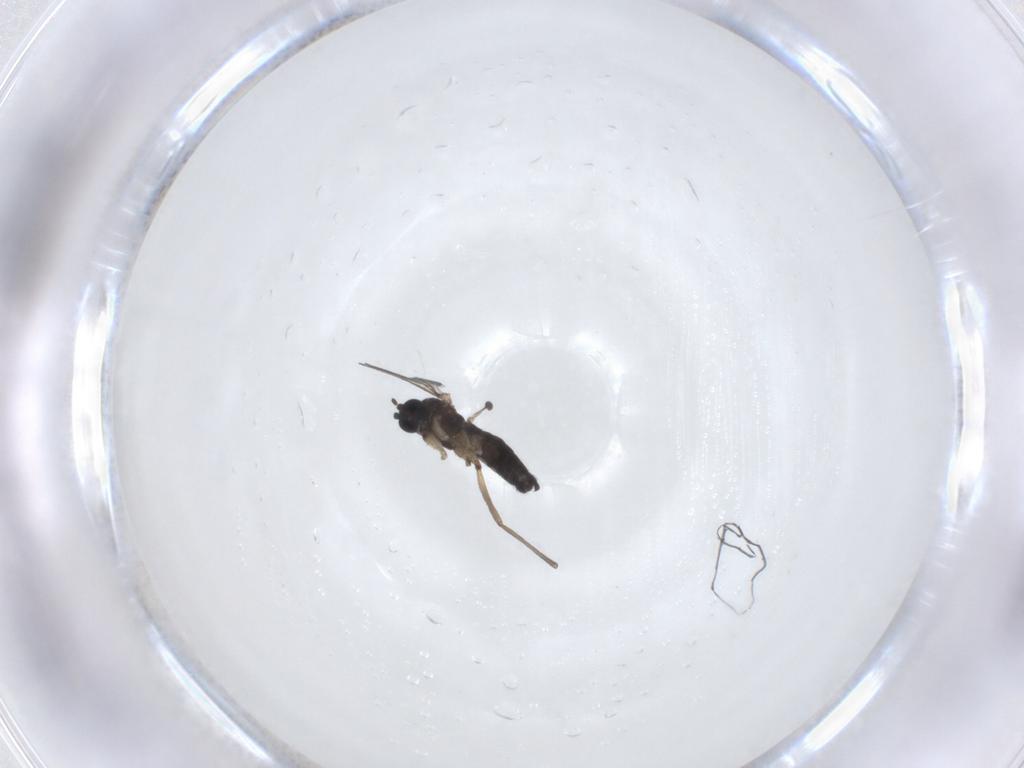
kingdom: Animalia
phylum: Arthropoda
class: Insecta
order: Diptera
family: Sciaridae
